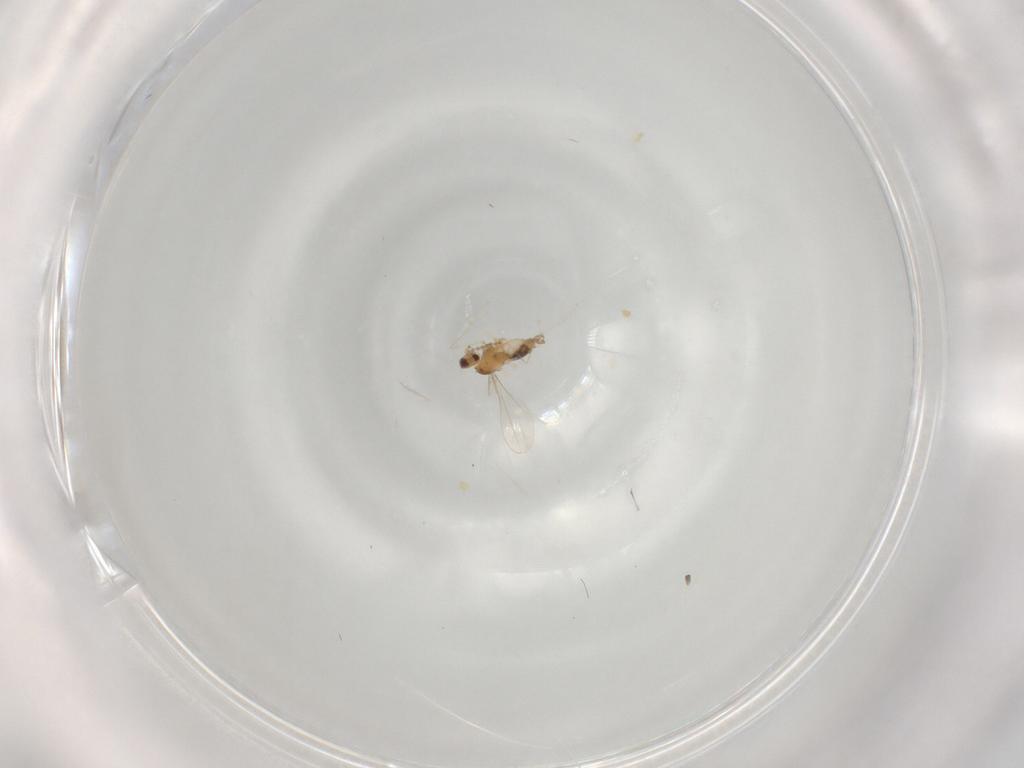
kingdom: Animalia
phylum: Arthropoda
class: Insecta
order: Diptera
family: Cecidomyiidae
